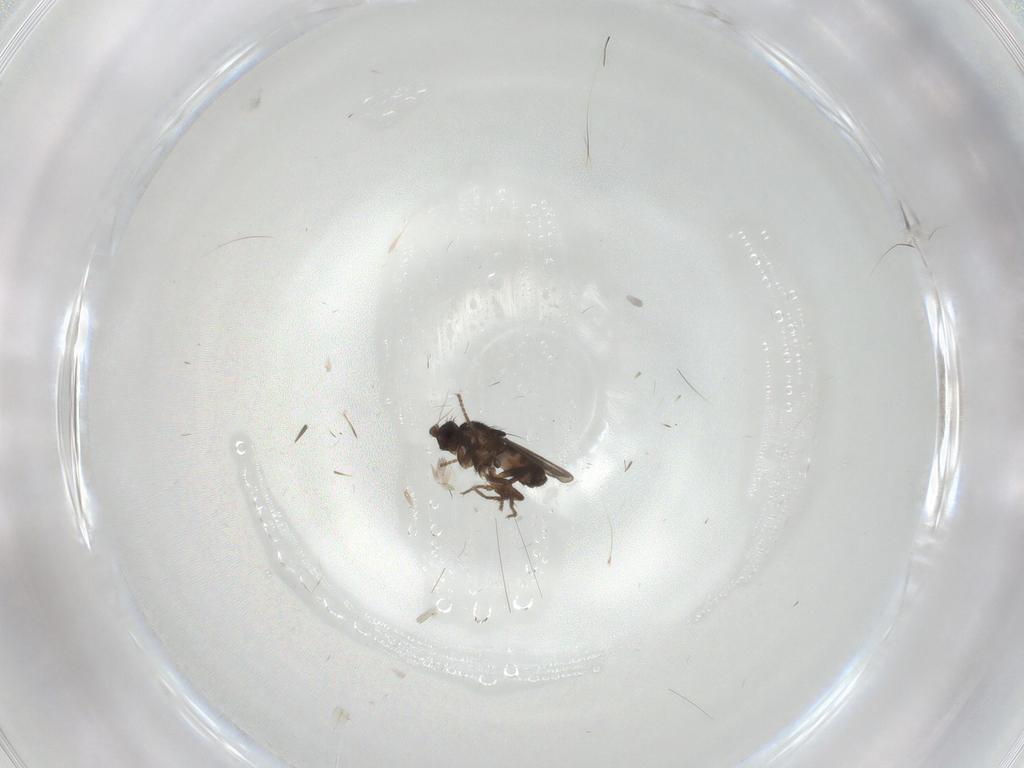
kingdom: Animalia
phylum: Arthropoda
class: Insecta
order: Diptera
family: Sphaeroceridae
